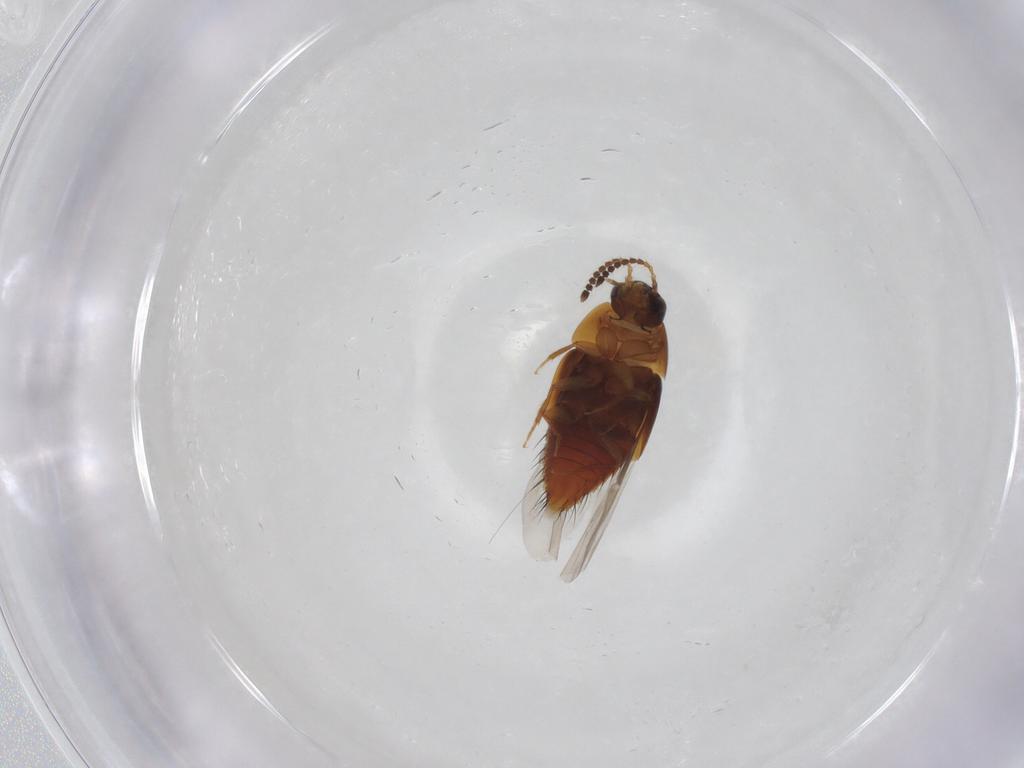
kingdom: Animalia
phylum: Arthropoda
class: Insecta
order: Coleoptera
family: Staphylinidae
